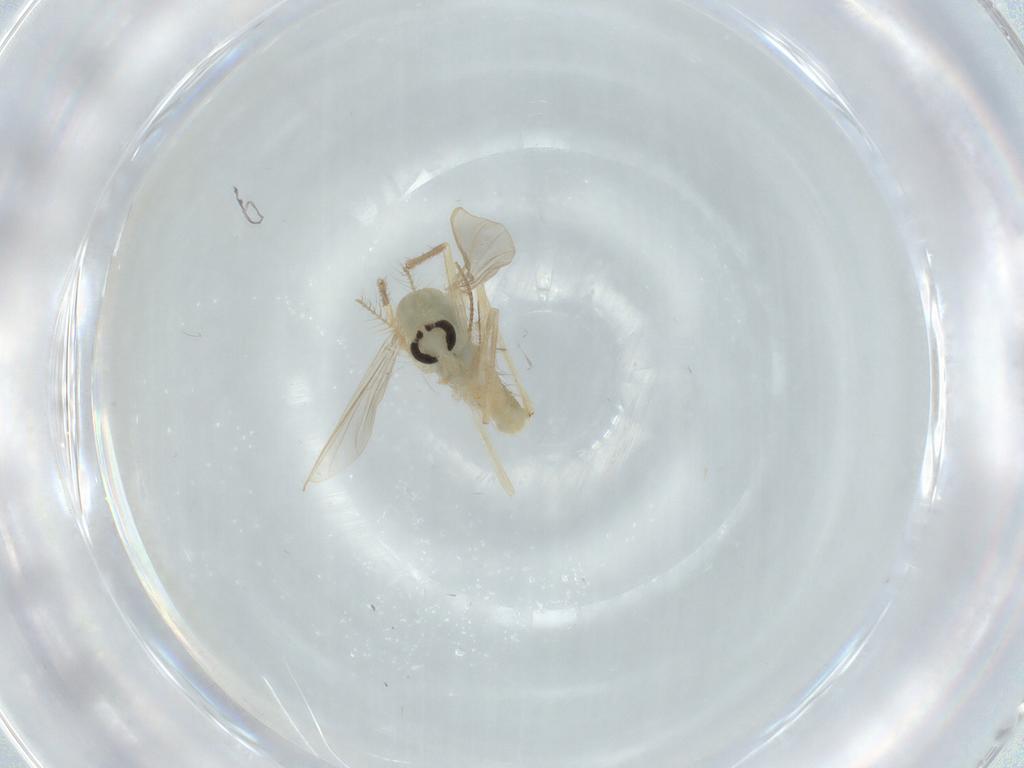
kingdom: Animalia
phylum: Arthropoda
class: Insecta
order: Diptera
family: Chironomidae
